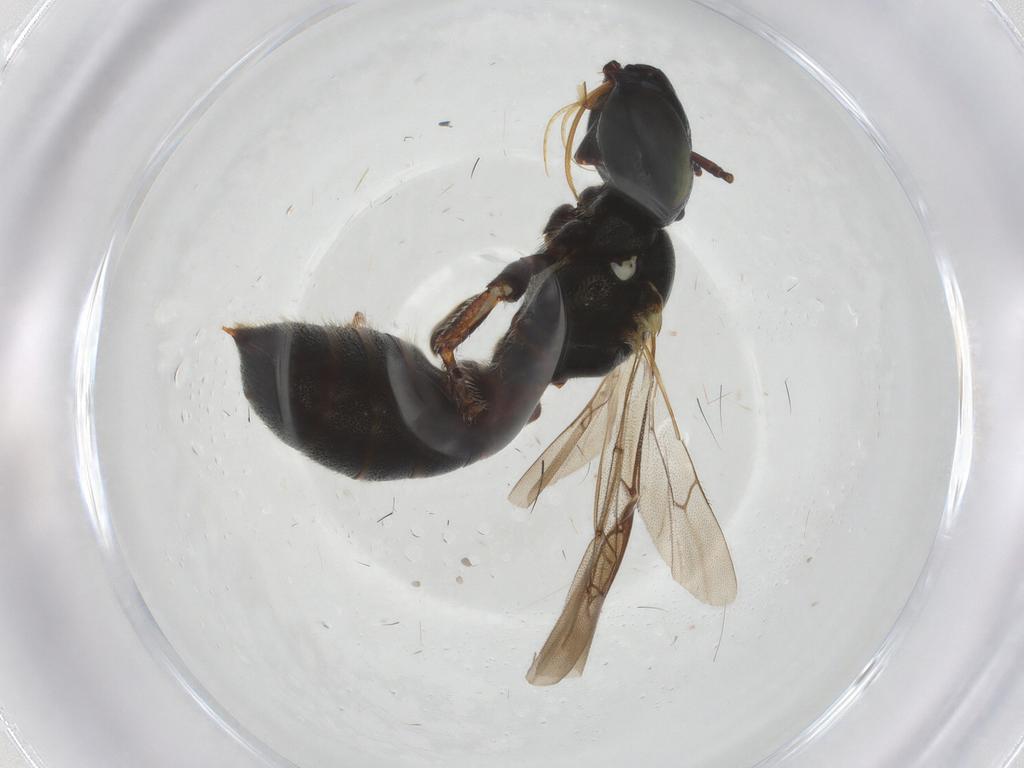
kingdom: Animalia
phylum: Arthropoda
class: Insecta
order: Hymenoptera
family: Apidae
